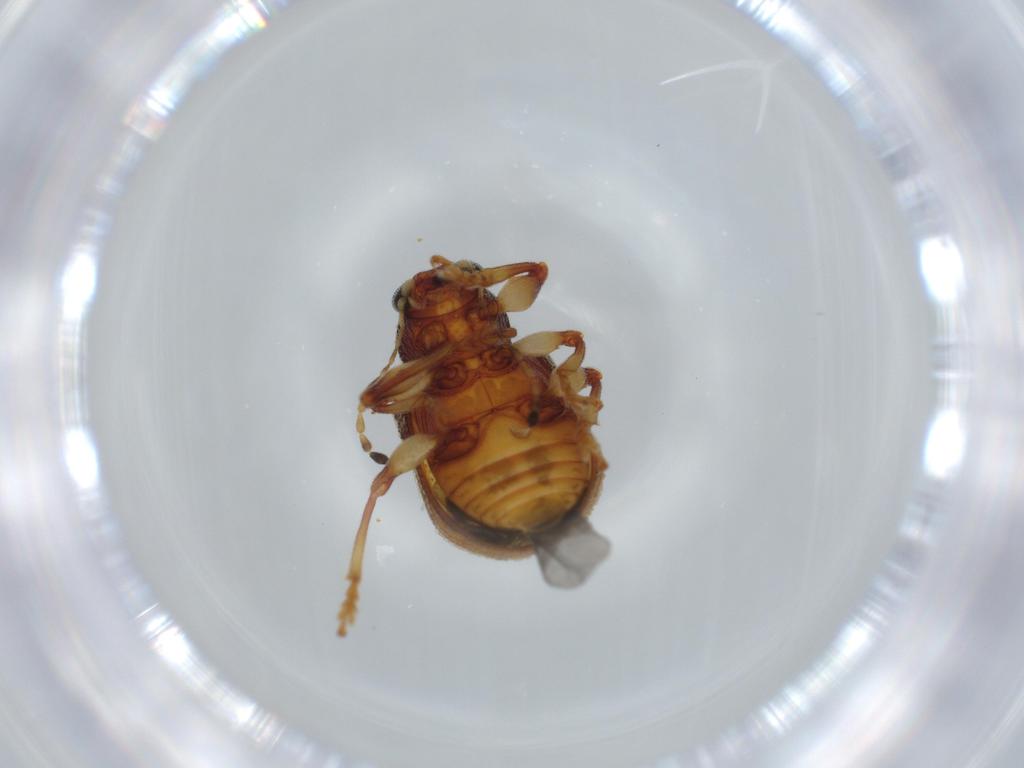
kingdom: Animalia
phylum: Arthropoda
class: Insecta
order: Coleoptera
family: Chrysomelidae
